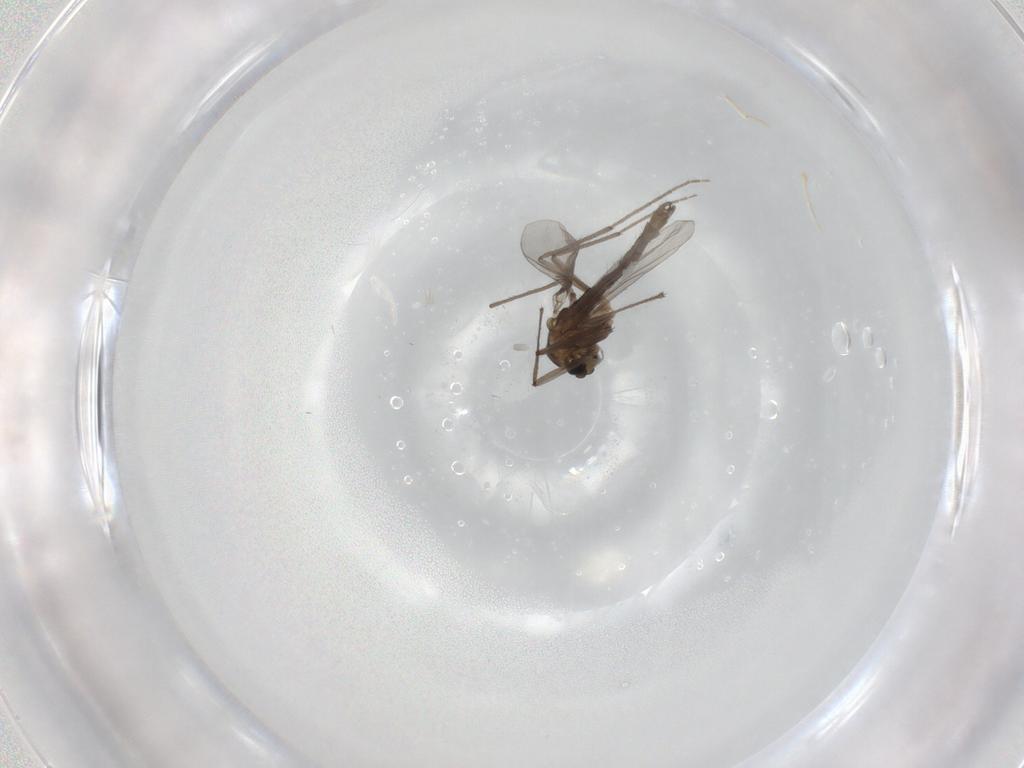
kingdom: Animalia
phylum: Arthropoda
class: Insecta
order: Diptera
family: Chironomidae
